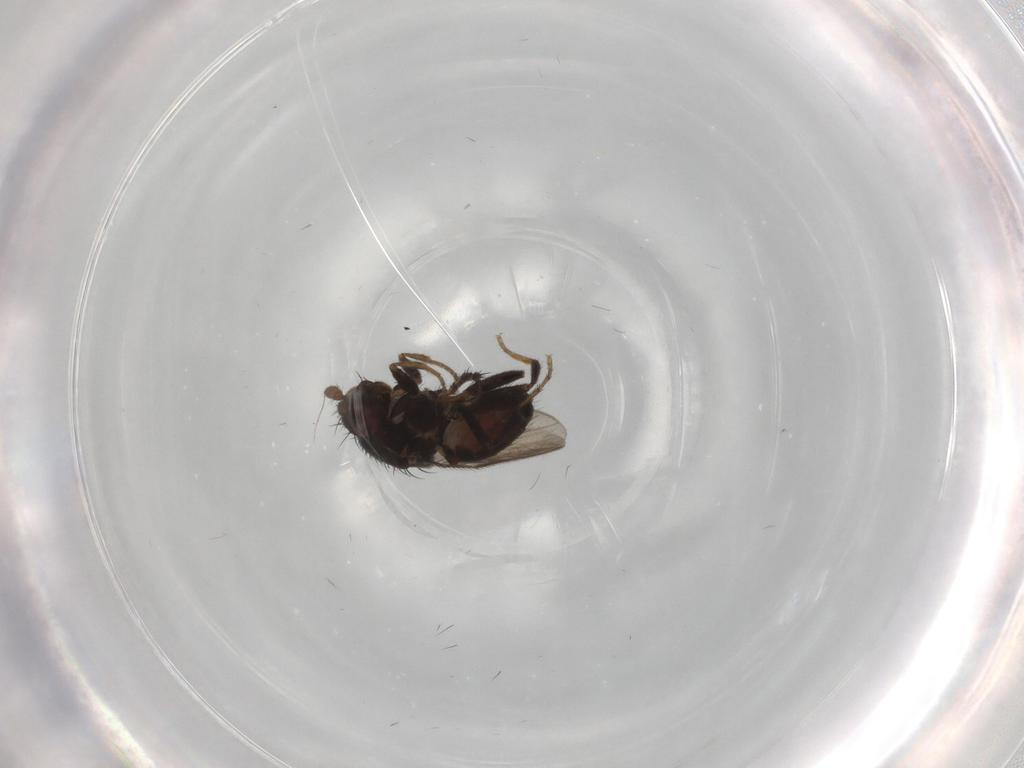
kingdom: Animalia
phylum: Arthropoda
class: Insecta
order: Diptera
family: Sphaeroceridae
